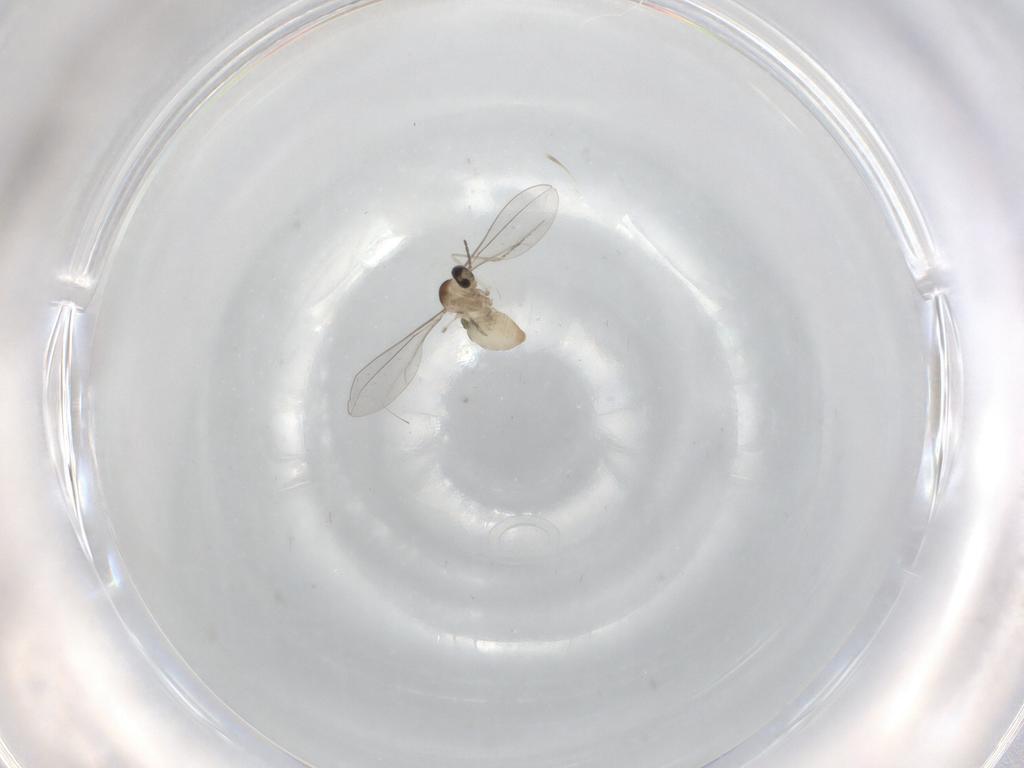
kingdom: Animalia
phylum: Arthropoda
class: Insecta
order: Diptera
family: Cecidomyiidae
